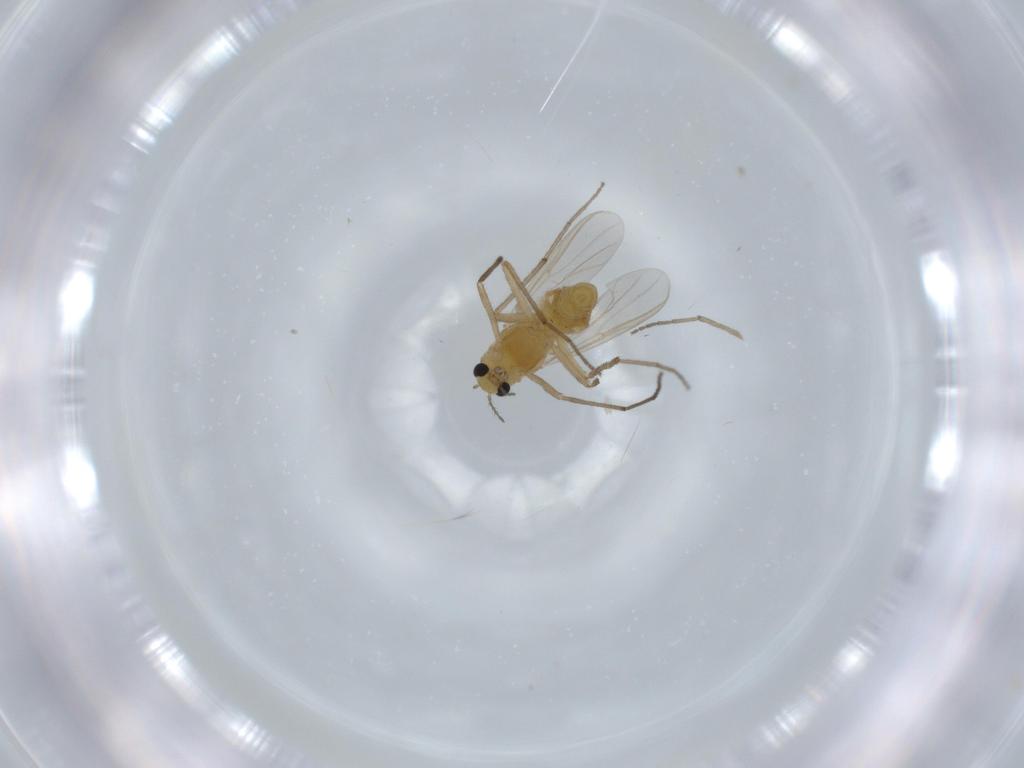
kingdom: Animalia
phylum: Arthropoda
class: Insecta
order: Diptera
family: Chironomidae
